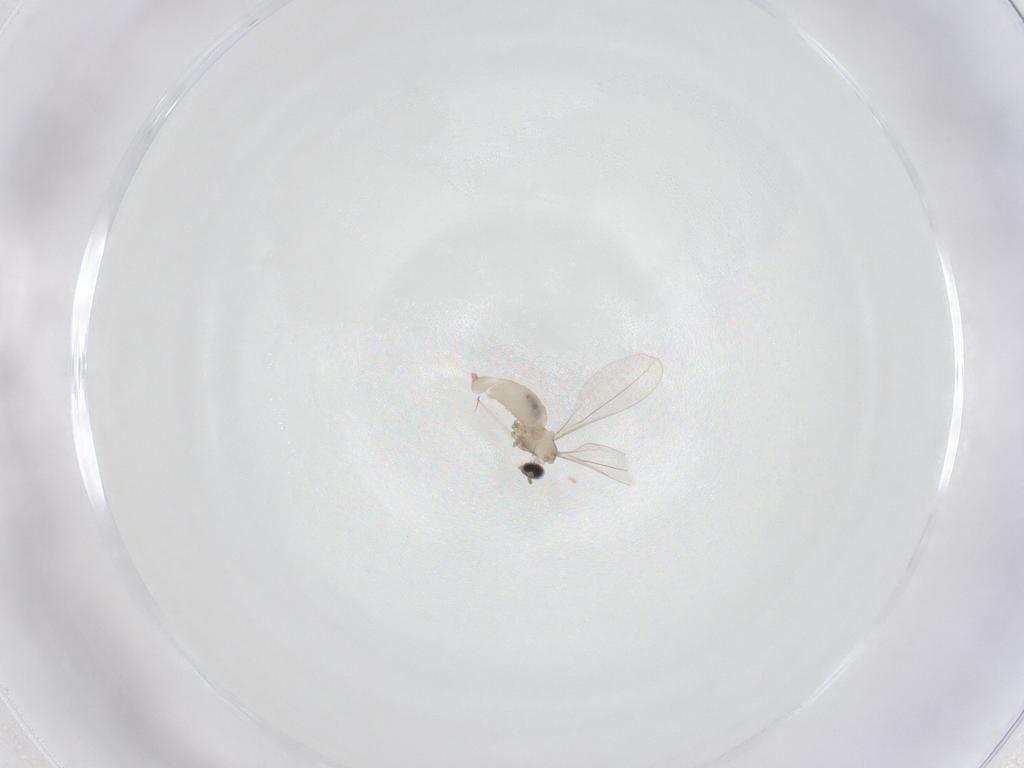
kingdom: Animalia
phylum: Arthropoda
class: Insecta
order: Diptera
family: Cecidomyiidae
